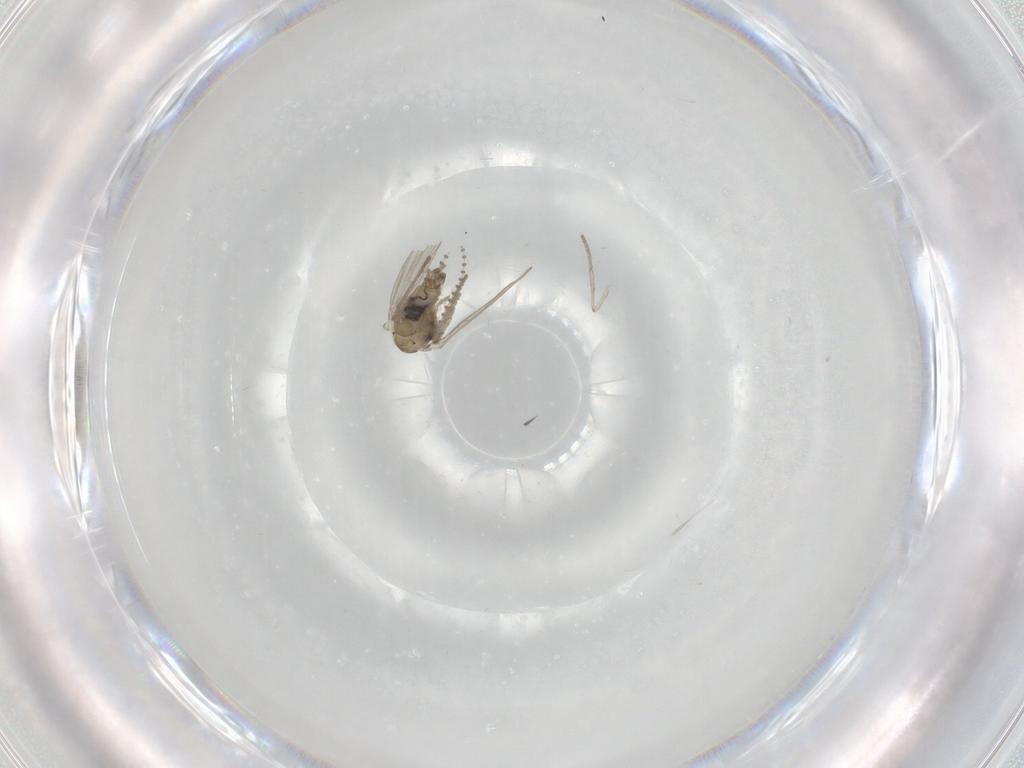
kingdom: Animalia
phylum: Arthropoda
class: Insecta
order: Diptera
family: Psychodidae
